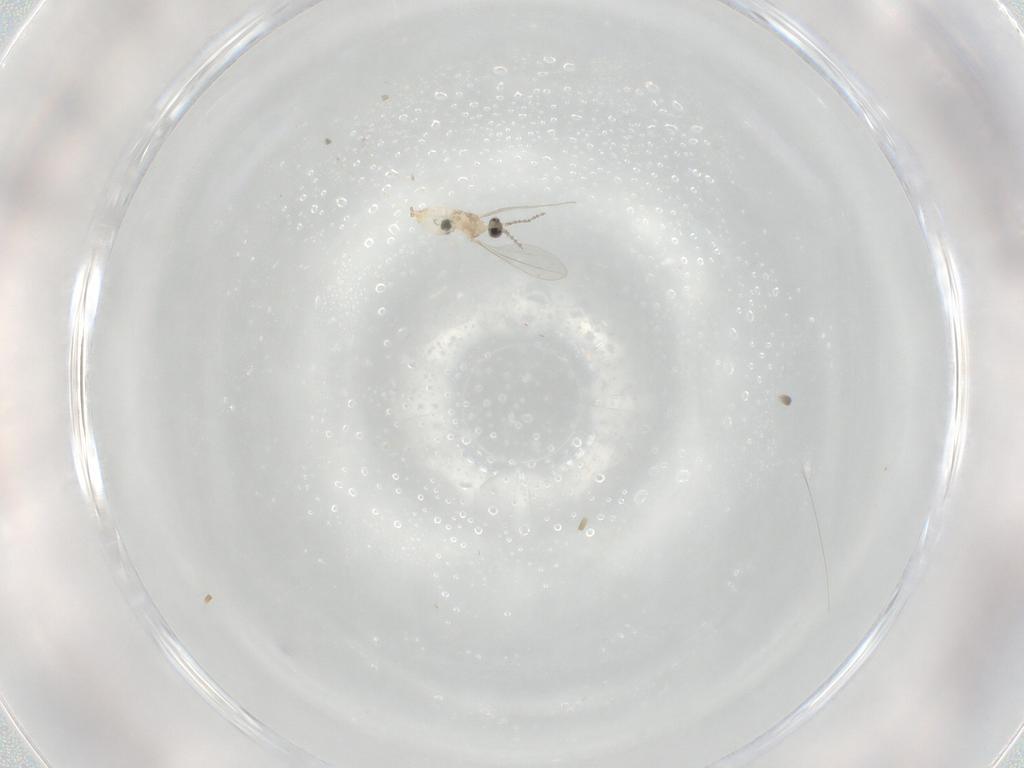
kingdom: Animalia
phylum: Arthropoda
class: Insecta
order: Diptera
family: Cecidomyiidae
